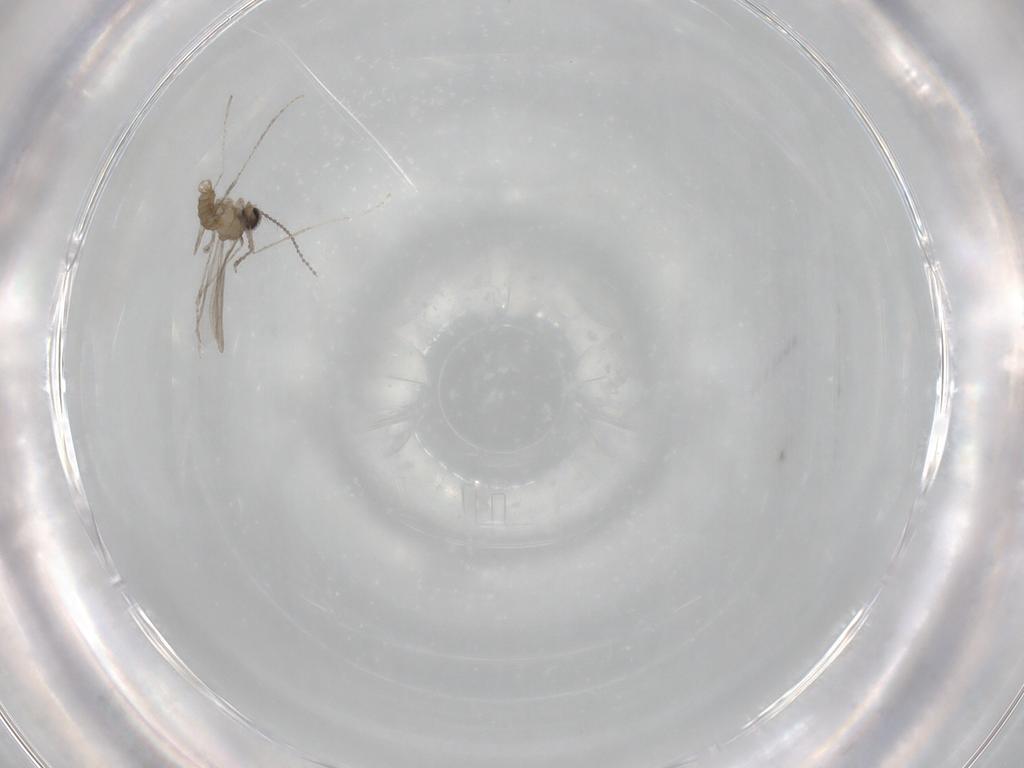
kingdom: Animalia
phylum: Arthropoda
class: Insecta
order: Diptera
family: Cecidomyiidae
